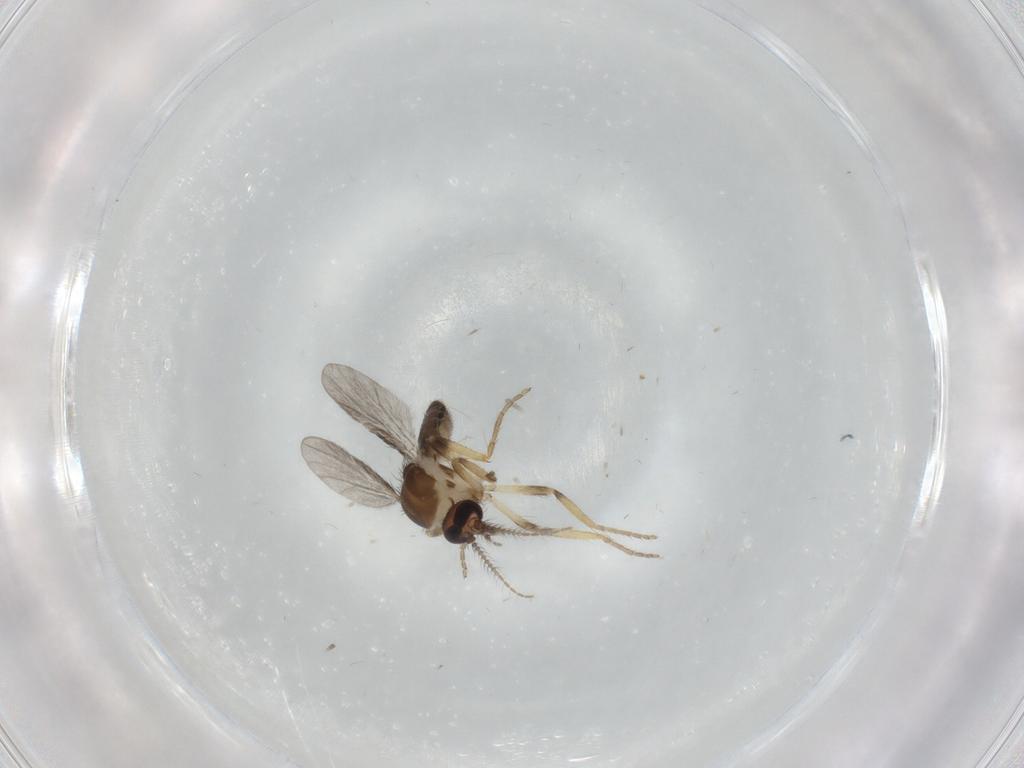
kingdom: Animalia
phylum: Arthropoda
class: Insecta
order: Diptera
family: Ceratopogonidae
